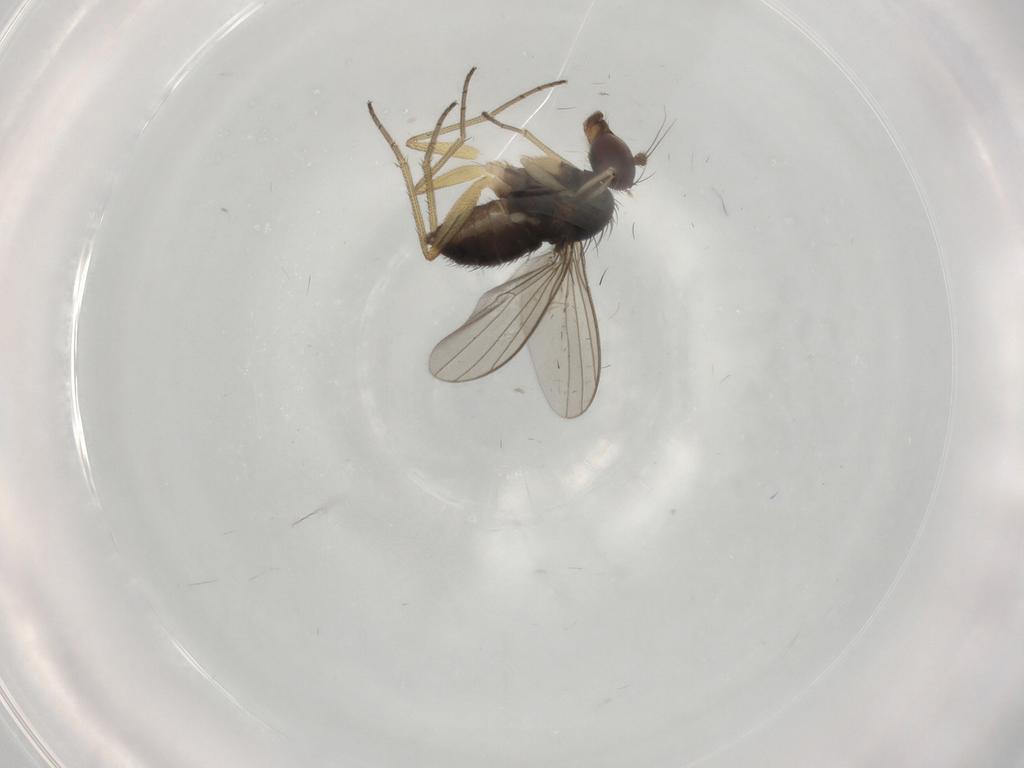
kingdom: Animalia
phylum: Arthropoda
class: Insecta
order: Diptera
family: Dolichopodidae
